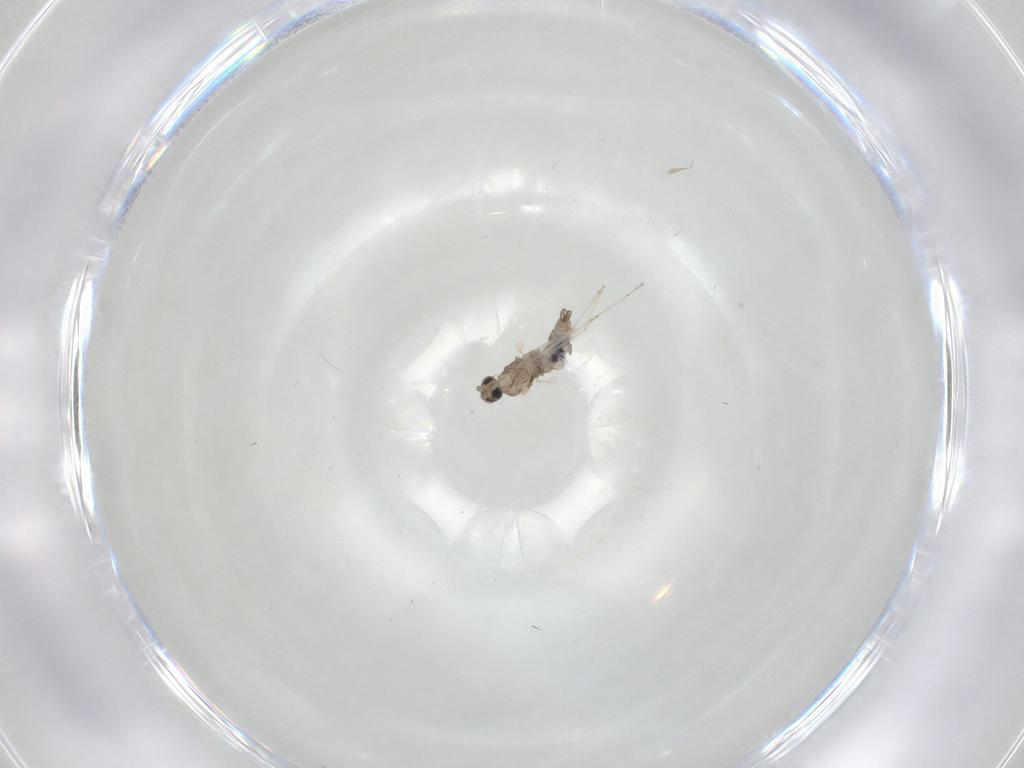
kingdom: Animalia
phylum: Arthropoda
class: Insecta
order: Diptera
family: Cecidomyiidae
